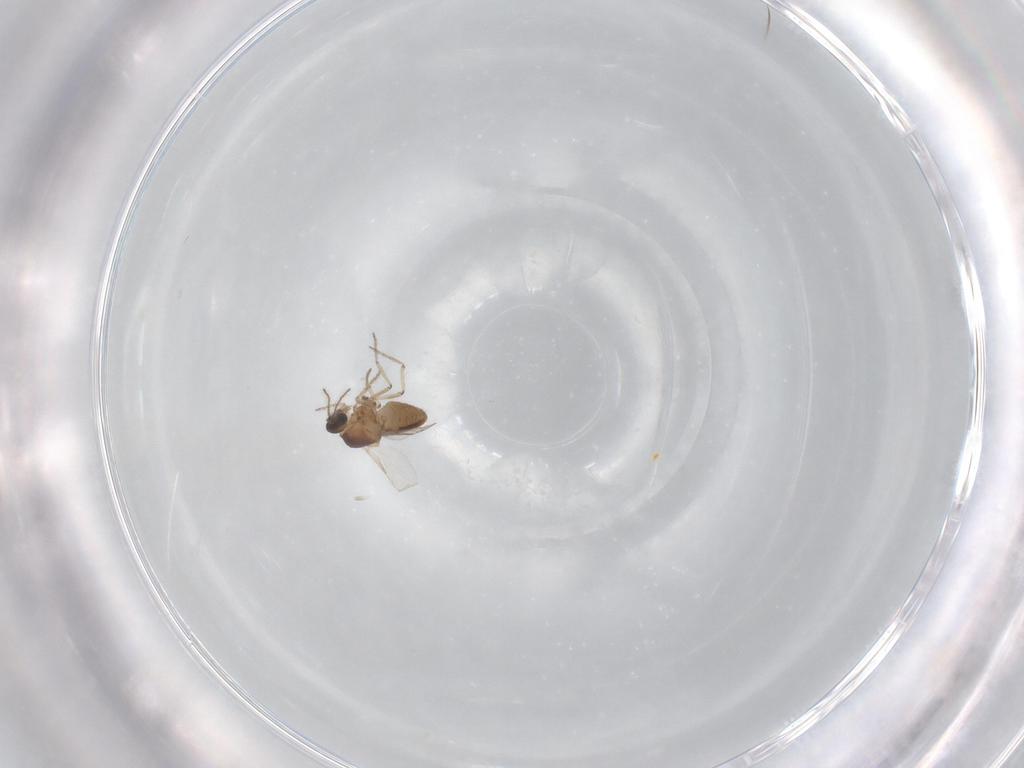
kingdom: Animalia
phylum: Arthropoda
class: Insecta
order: Diptera
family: Ceratopogonidae
